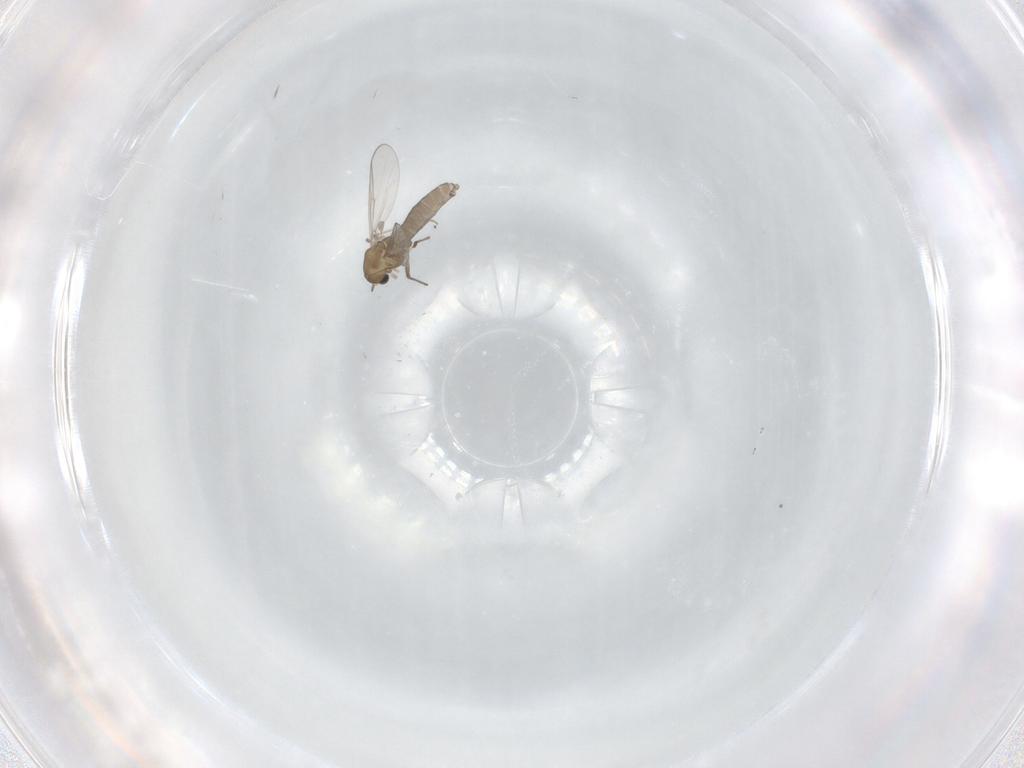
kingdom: Animalia
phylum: Arthropoda
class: Insecta
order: Diptera
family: Chironomidae
